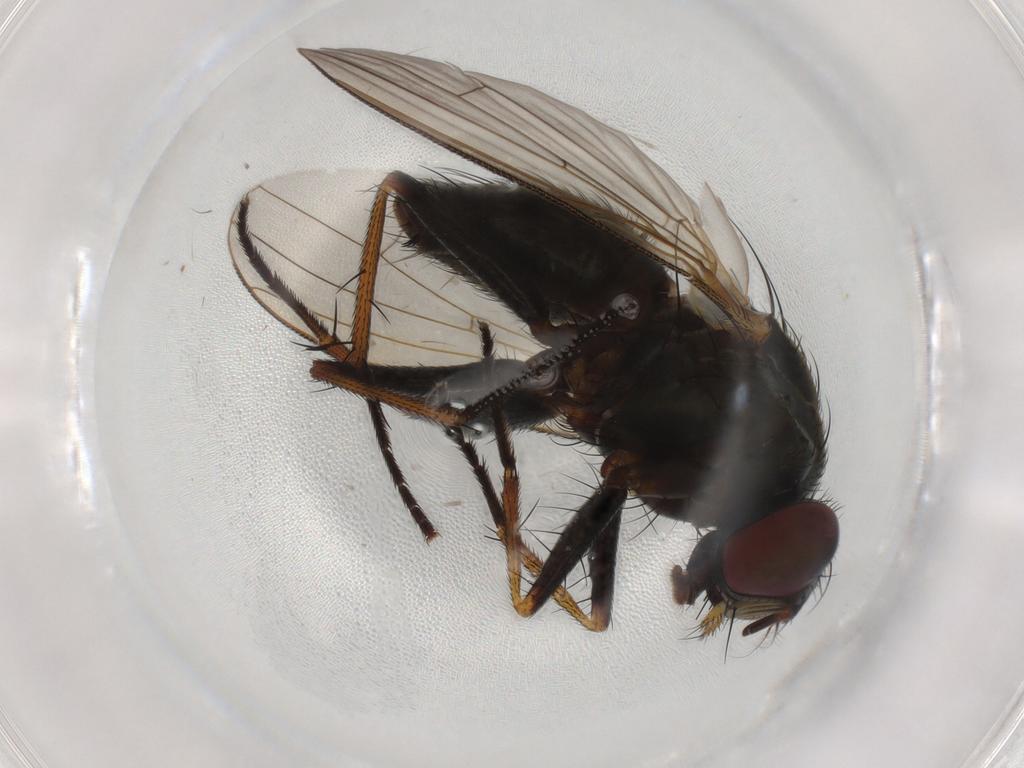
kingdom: Animalia
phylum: Arthropoda
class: Insecta
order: Diptera
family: Muscidae
